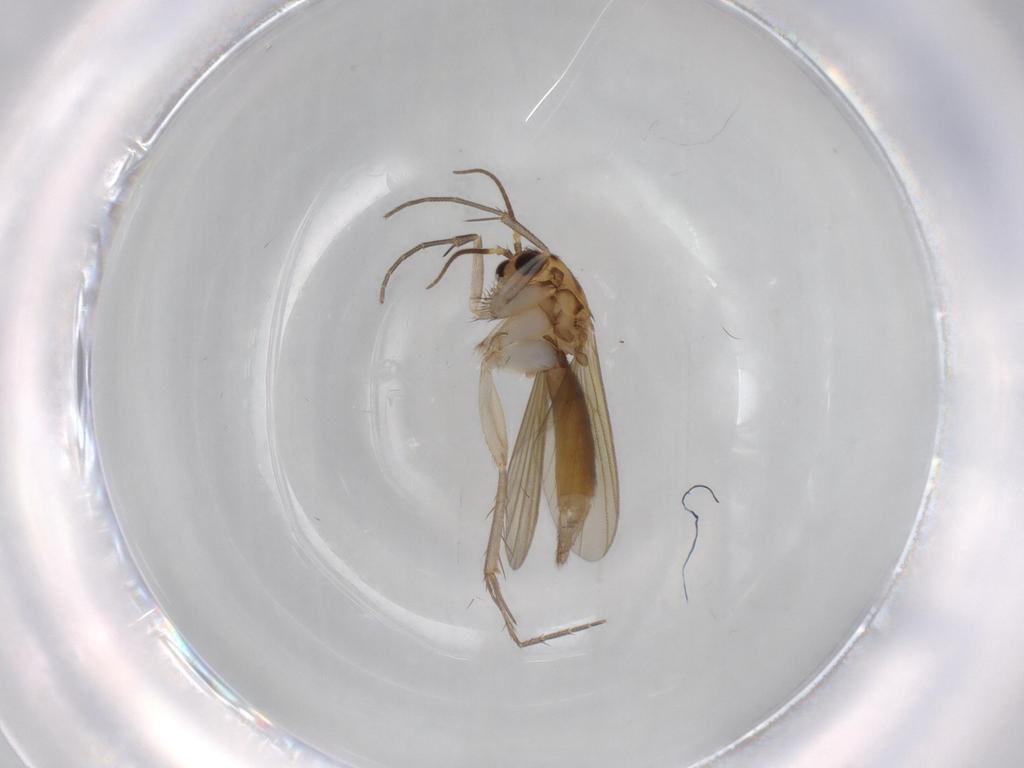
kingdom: Animalia
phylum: Arthropoda
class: Insecta
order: Diptera
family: Mycetophilidae
